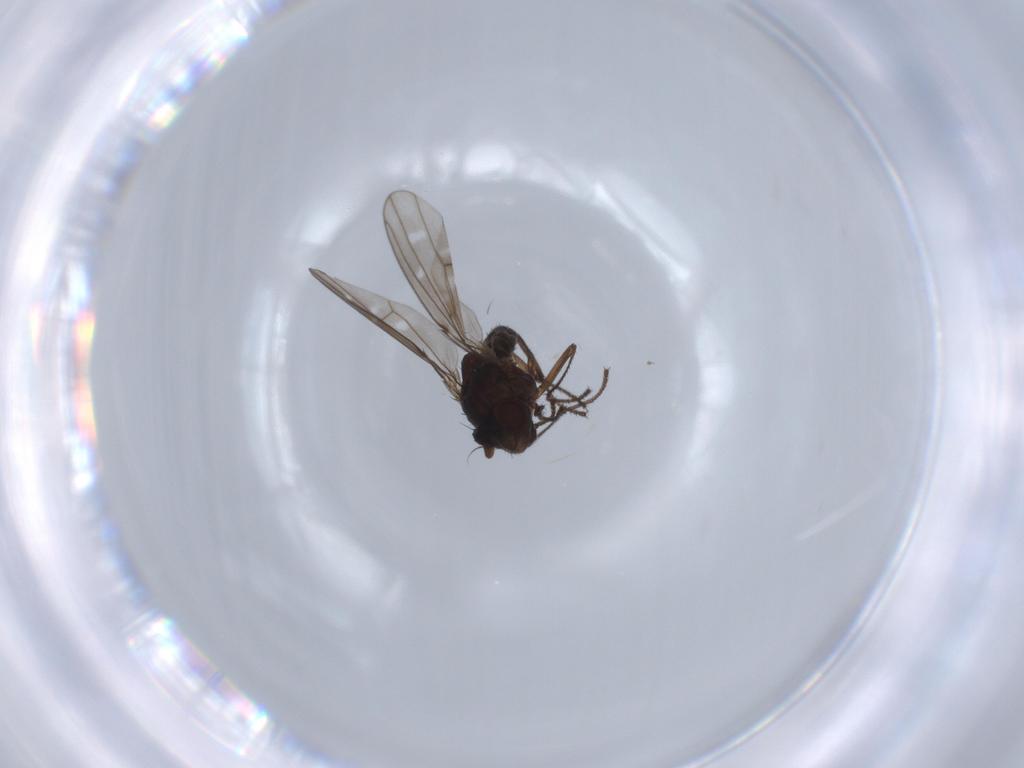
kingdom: Animalia
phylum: Arthropoda
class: Insecta
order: Diptera
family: Ephydridae
